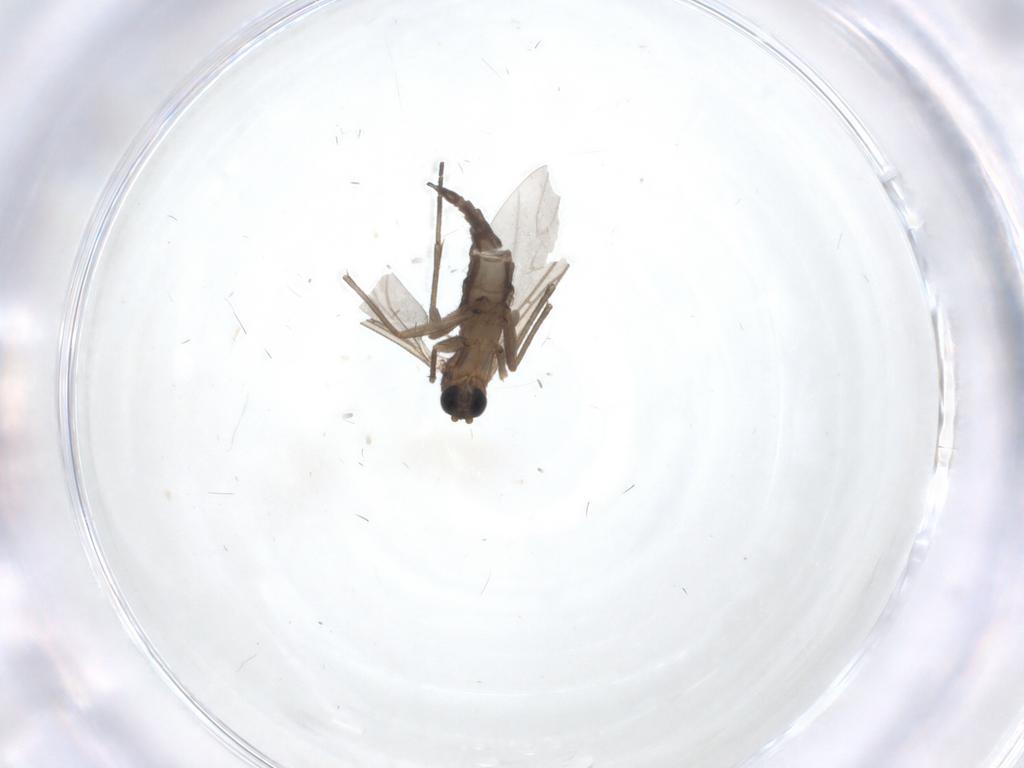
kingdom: Animalia
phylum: Arthropoda
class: Insecta
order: Diptera
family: Sciaridae
